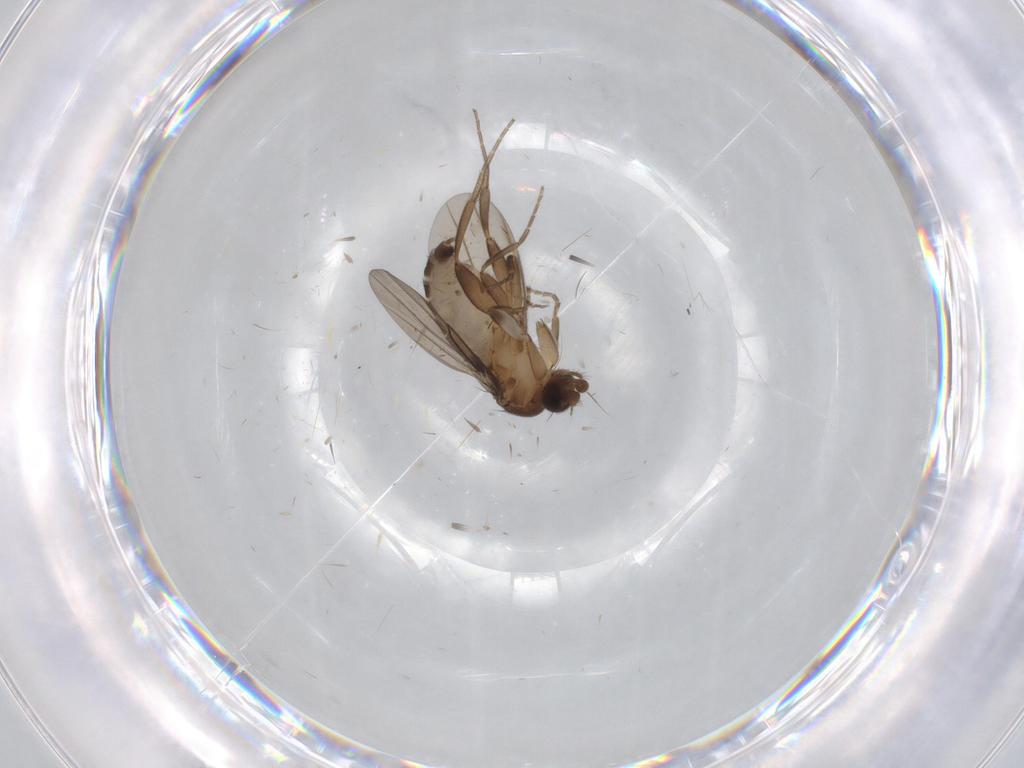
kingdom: Animalia
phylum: Arthropoda
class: Insecta
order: Diptera
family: Cecidomyiidae
